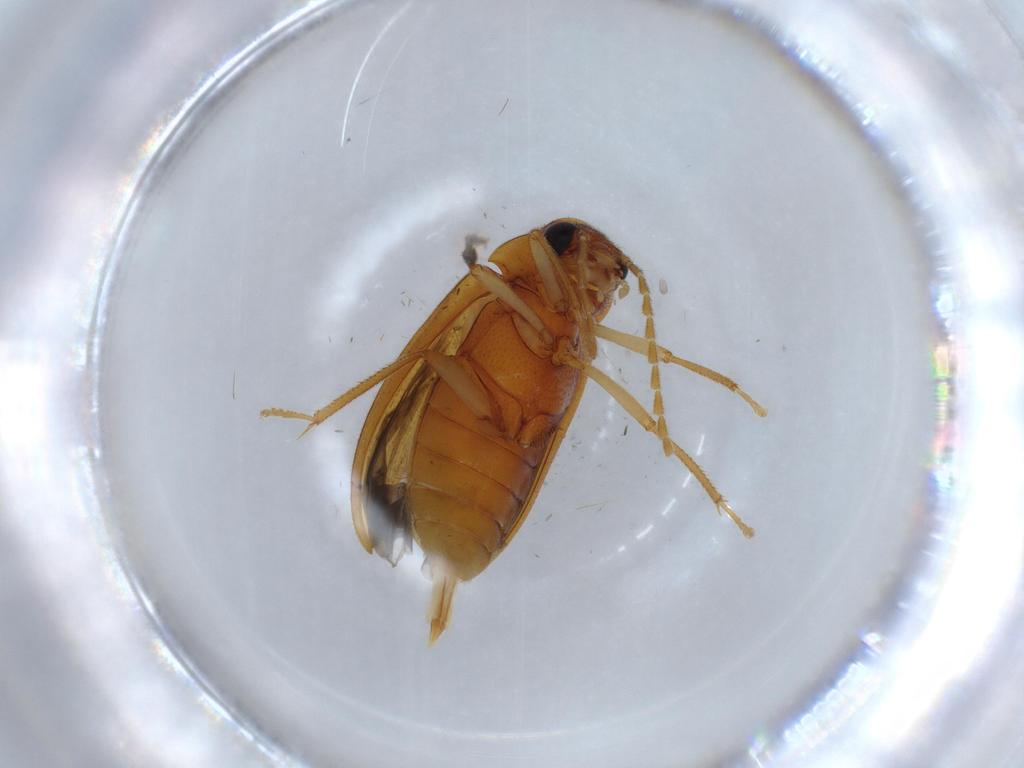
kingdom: Animalia
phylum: Arthropoda
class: Insecta
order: Coleoptera
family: Ptilodactylidae
